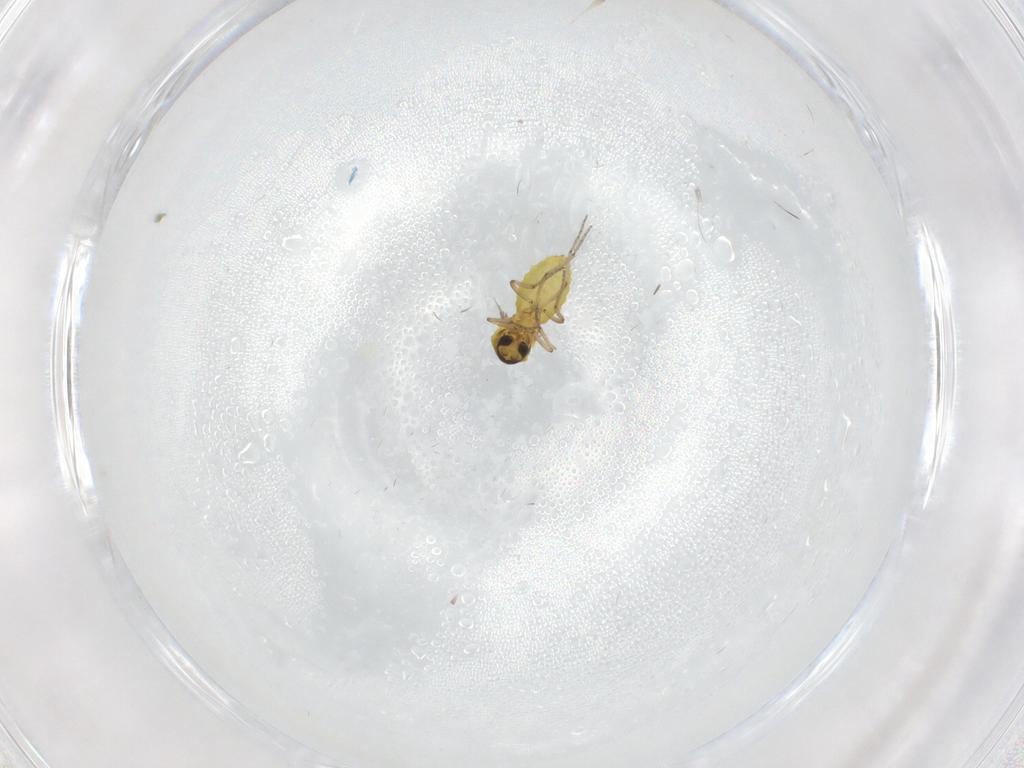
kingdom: Animalia
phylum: Arthropoda
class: Insecta
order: Diptera
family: Ceratopogonidae
